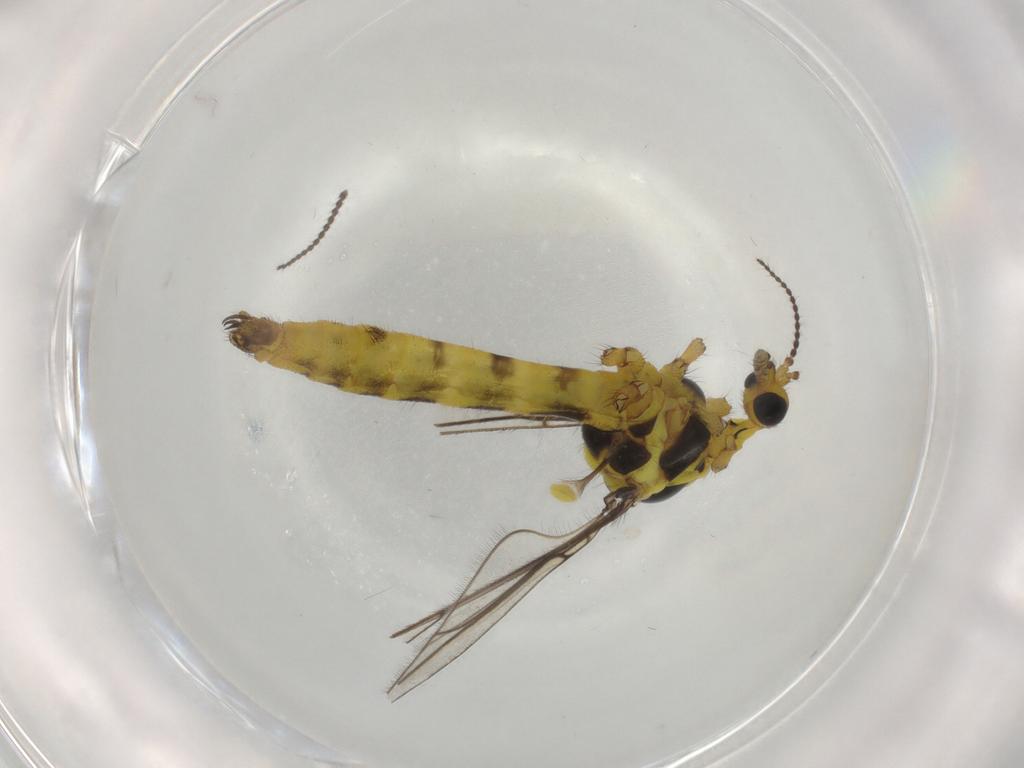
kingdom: Animalia
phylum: Arthropoda
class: Insecta
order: Diptera
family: Limoniidae
